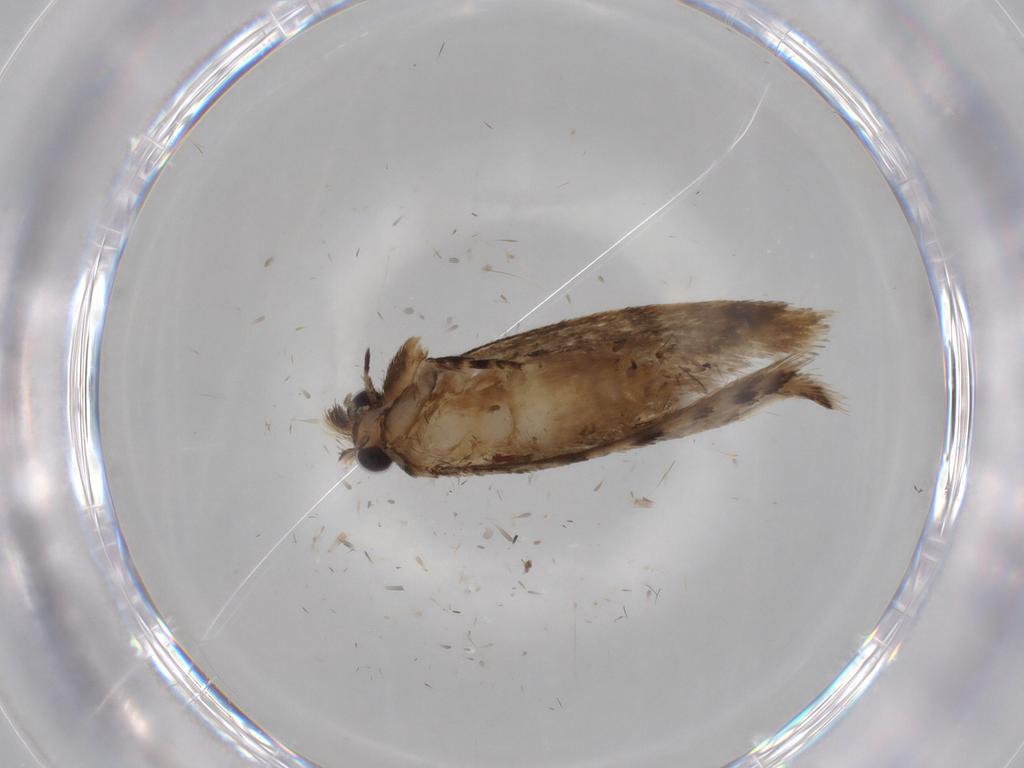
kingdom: Animalia
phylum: Arthropoda
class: Insecta
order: Lepidoptera
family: Tineidae
